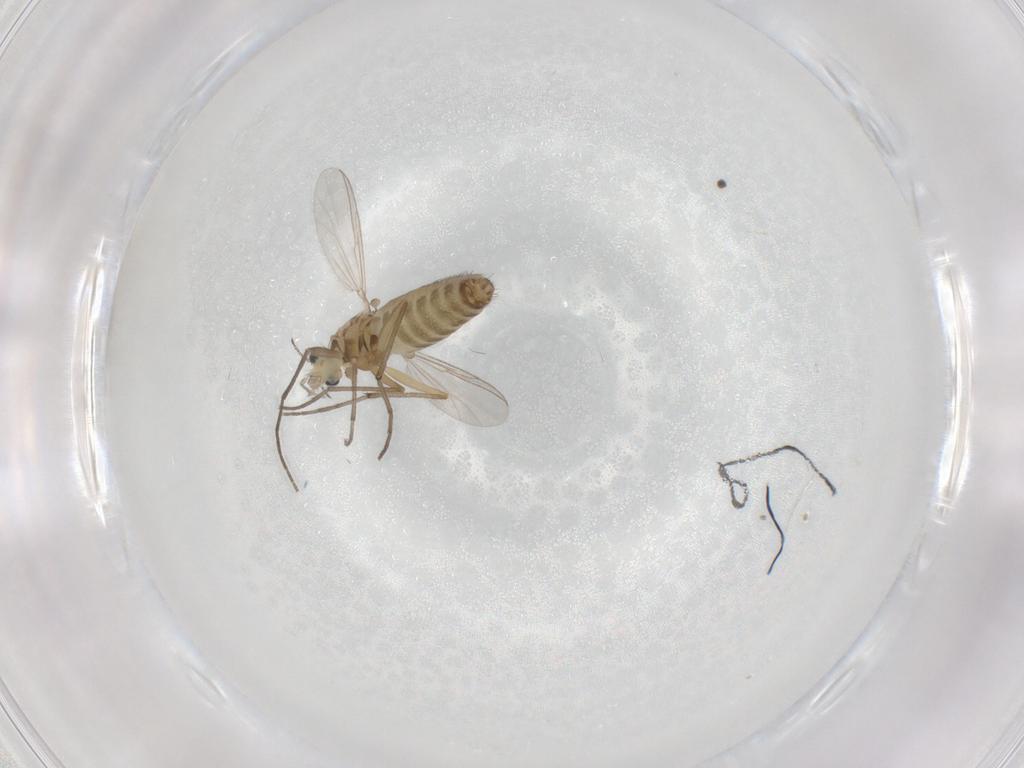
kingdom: Animalia
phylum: Arthropoda
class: Insecta
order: Diptera
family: Chironomidae
